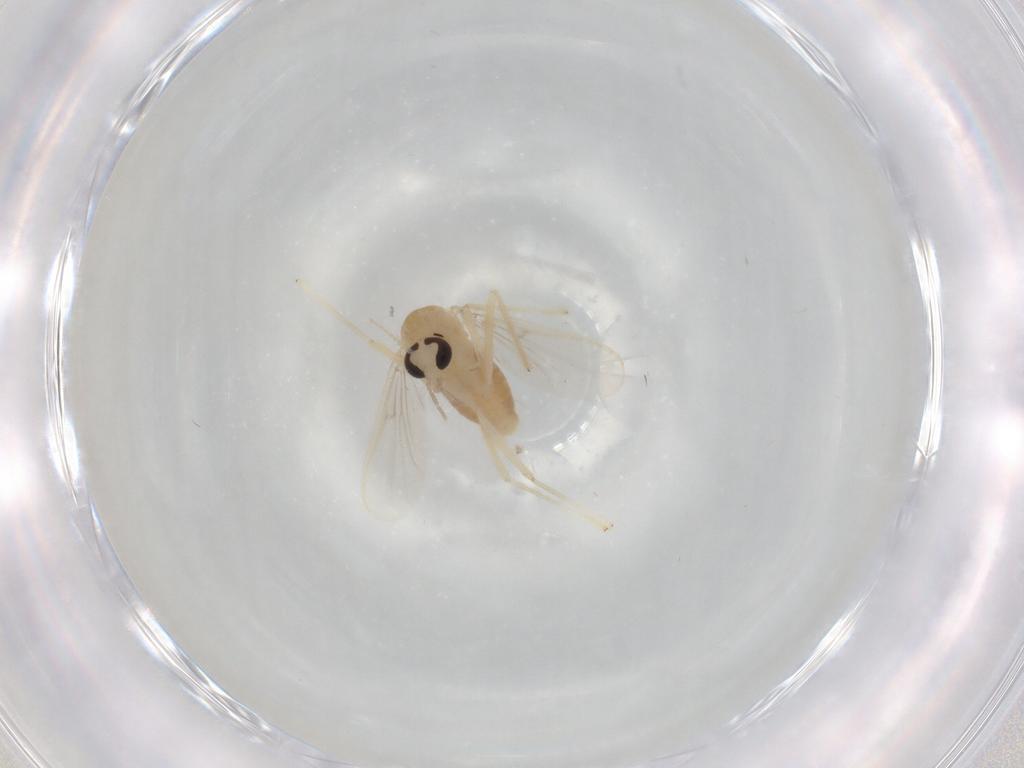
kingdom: Animalia
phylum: Arthropoda
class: Insecta
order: Diptera
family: Chironomidae
